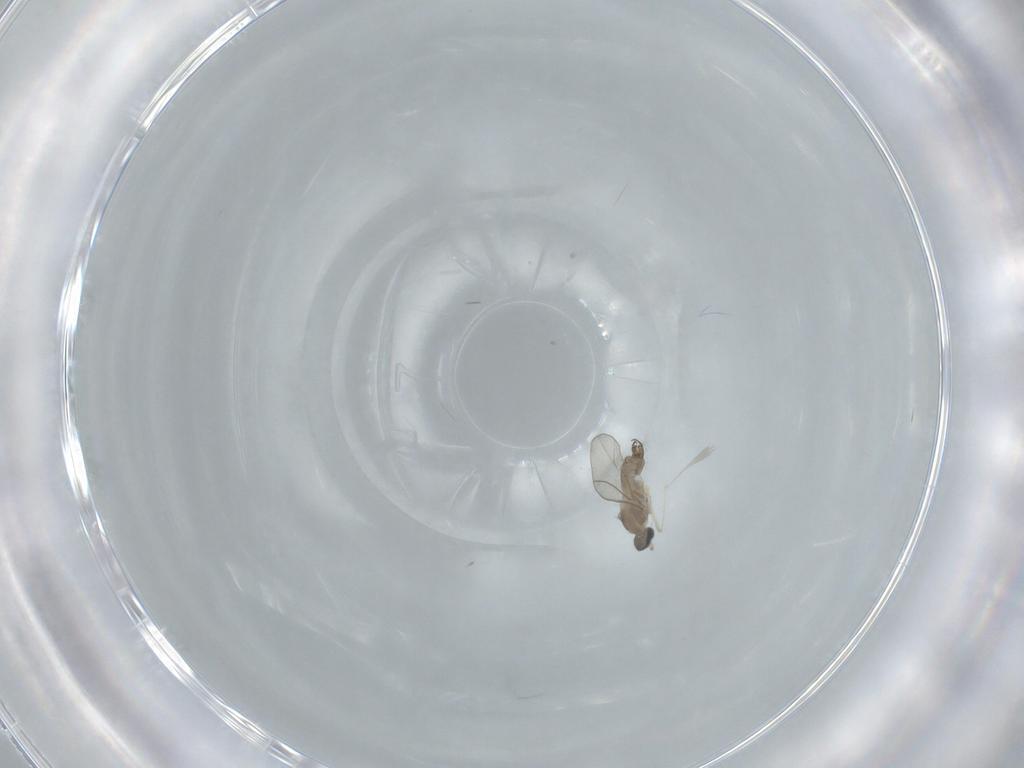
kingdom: Animalia
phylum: Arthropoda
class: Insecta
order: Diptera
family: Cecidomyiidae
